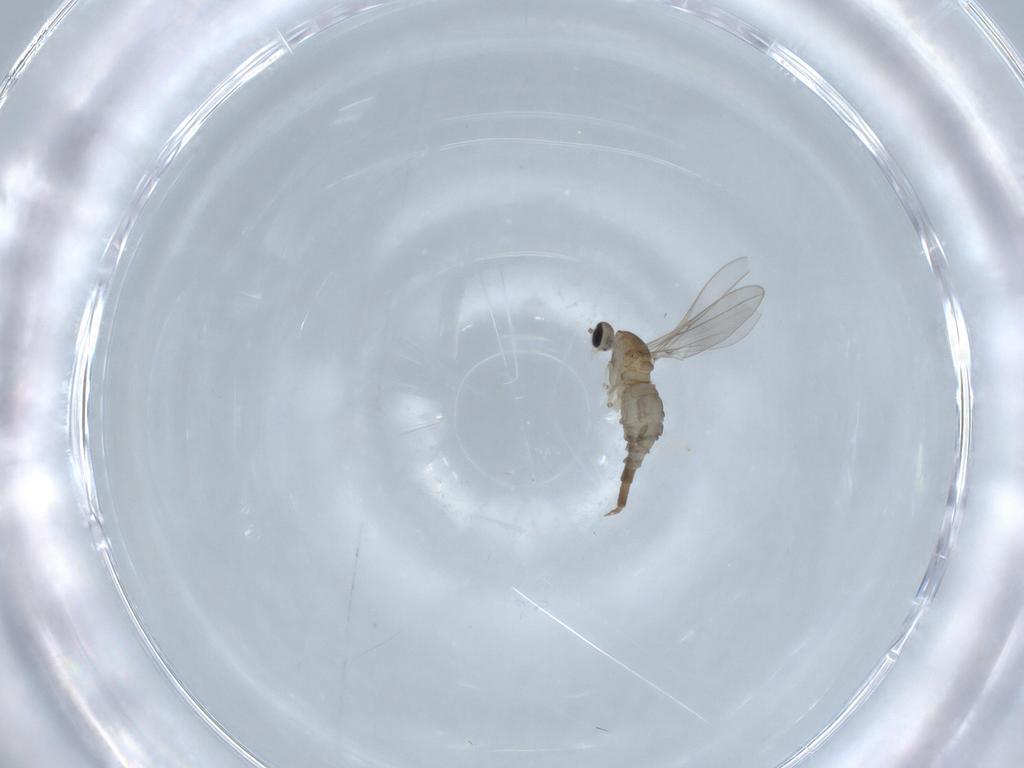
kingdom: Animalia
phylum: Arthropoda
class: Insecta
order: Diptera
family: Cecidomyiidae
